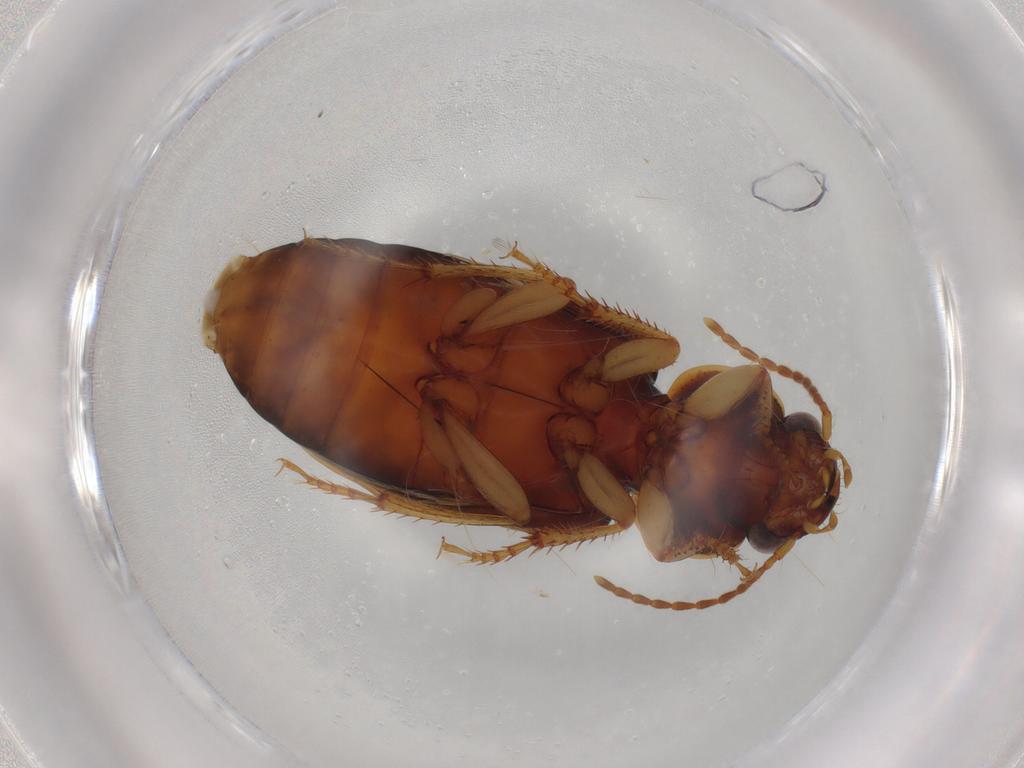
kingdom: Animalia
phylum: Arthropoda
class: Insecta
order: Coleoptera
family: Carabidae
